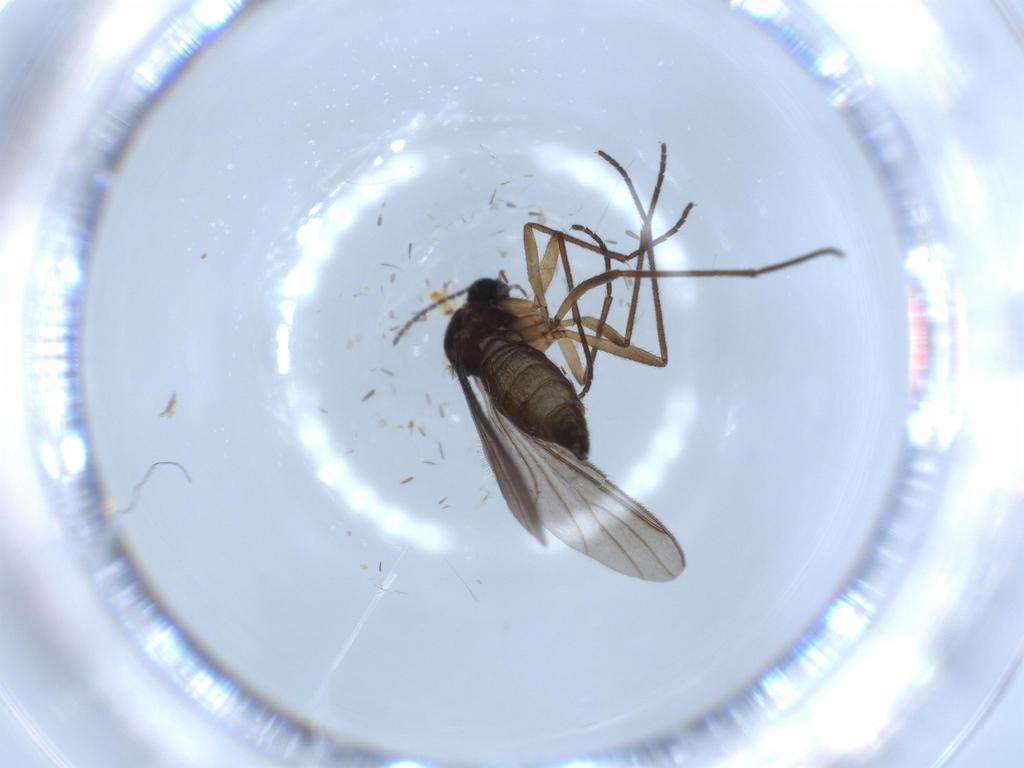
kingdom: Animalia
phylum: Arthropoda
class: Insecta
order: Diptera
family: Sciaridae
